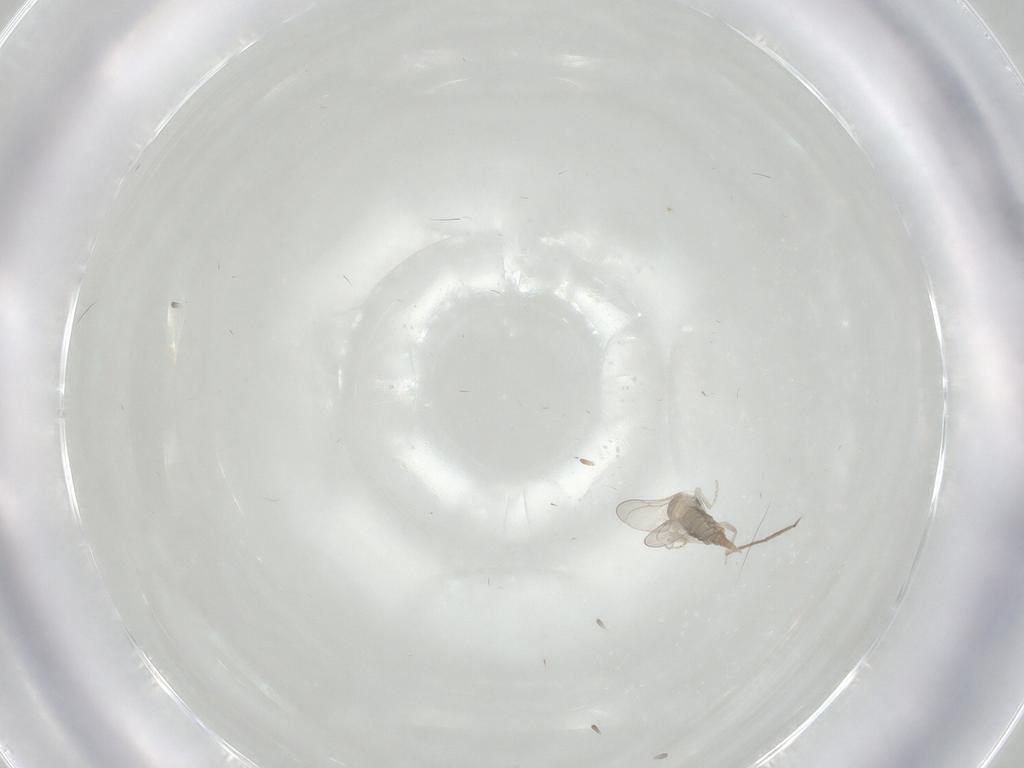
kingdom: Animalia
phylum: Arthropoda
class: Insecta
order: Diptera
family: Chironomidae
